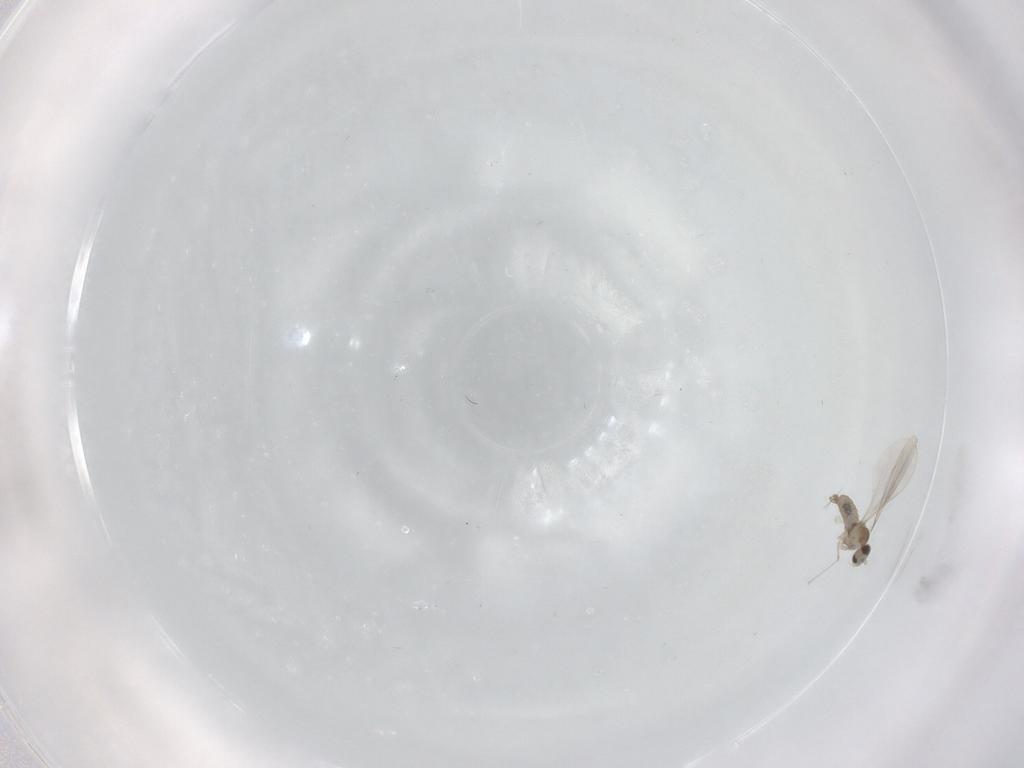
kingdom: Animalia
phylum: Arthropoda
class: Insecta
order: Diptera
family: Cecidomyiidae
